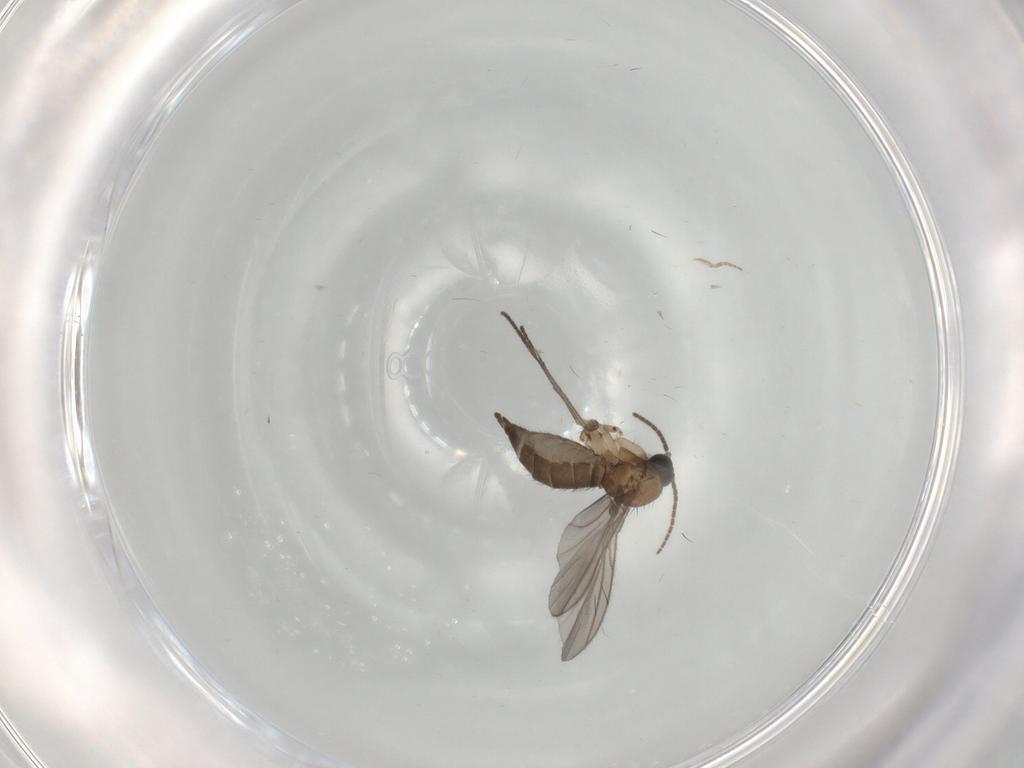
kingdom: Animalia
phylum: Arthropoda
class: Insecta
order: Diptera
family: Sciaridae
